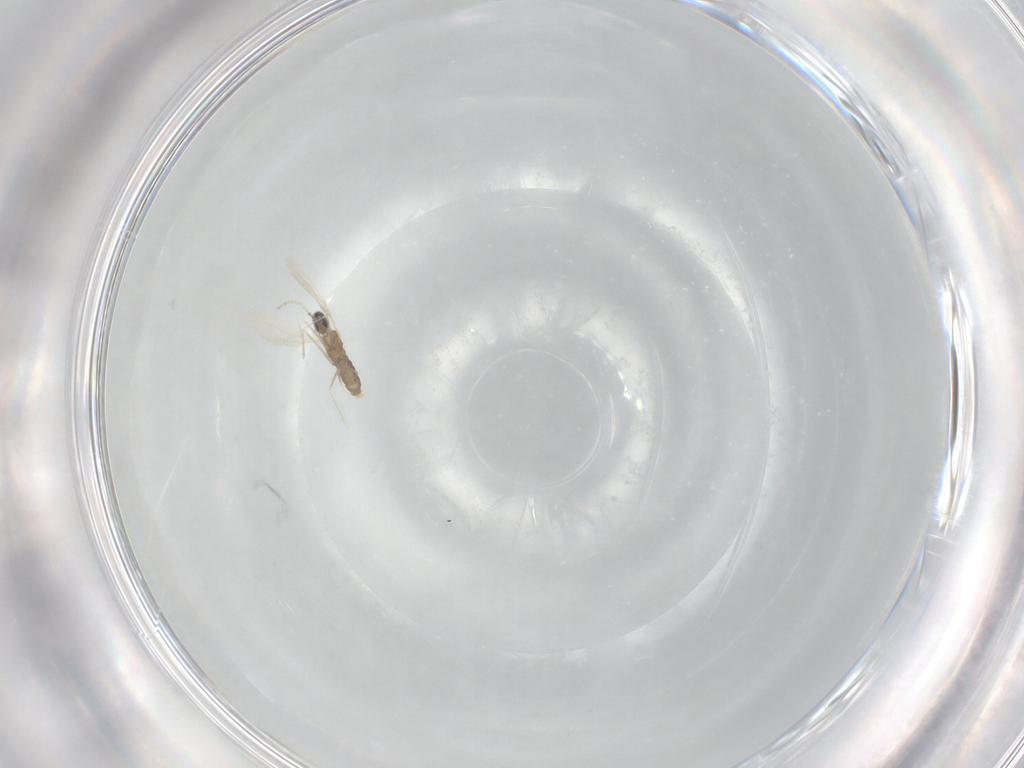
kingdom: Animalia
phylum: Arthropoda
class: Insecta
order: Diptera
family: Cecidomyiidae
